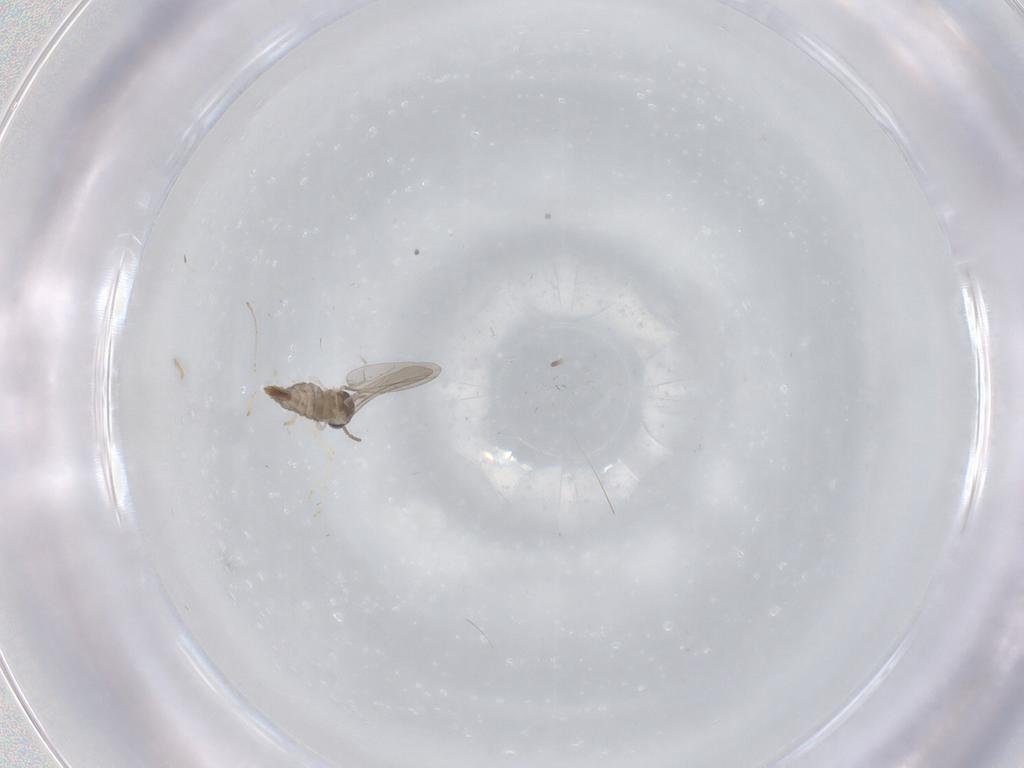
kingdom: Animalia
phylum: Arthropoda
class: Insecta
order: Diptera
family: Cecidomyiidae
